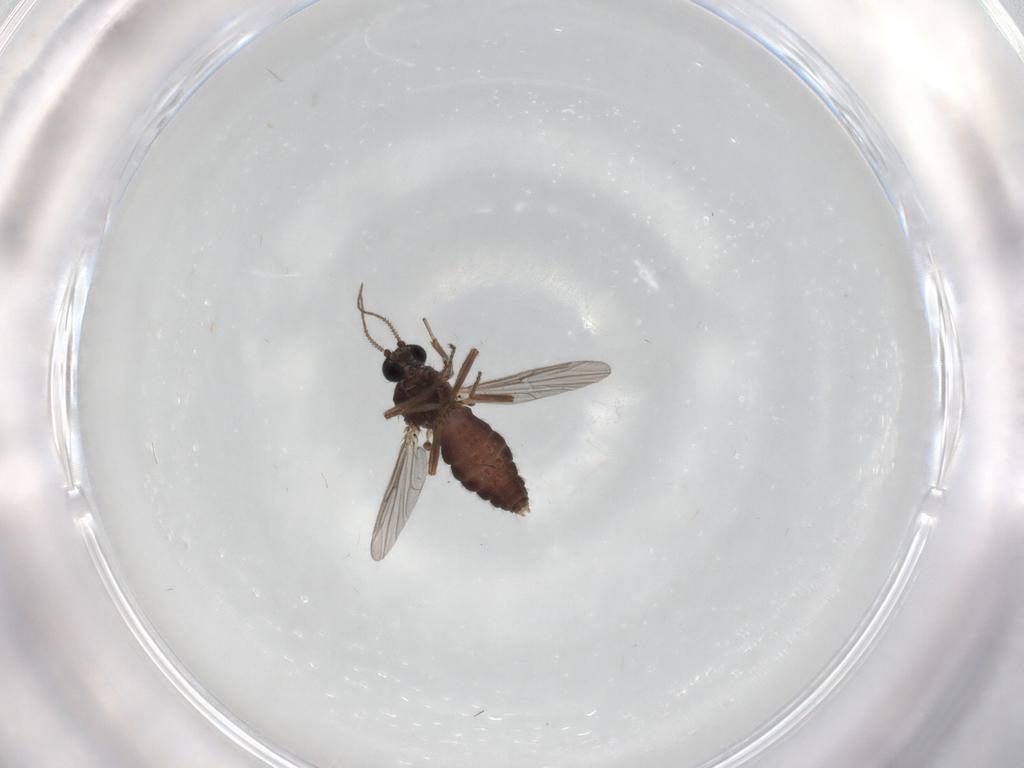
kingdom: Animalia
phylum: Arthropoda
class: Insecta
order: Diptera
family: Ceratopogonidae
